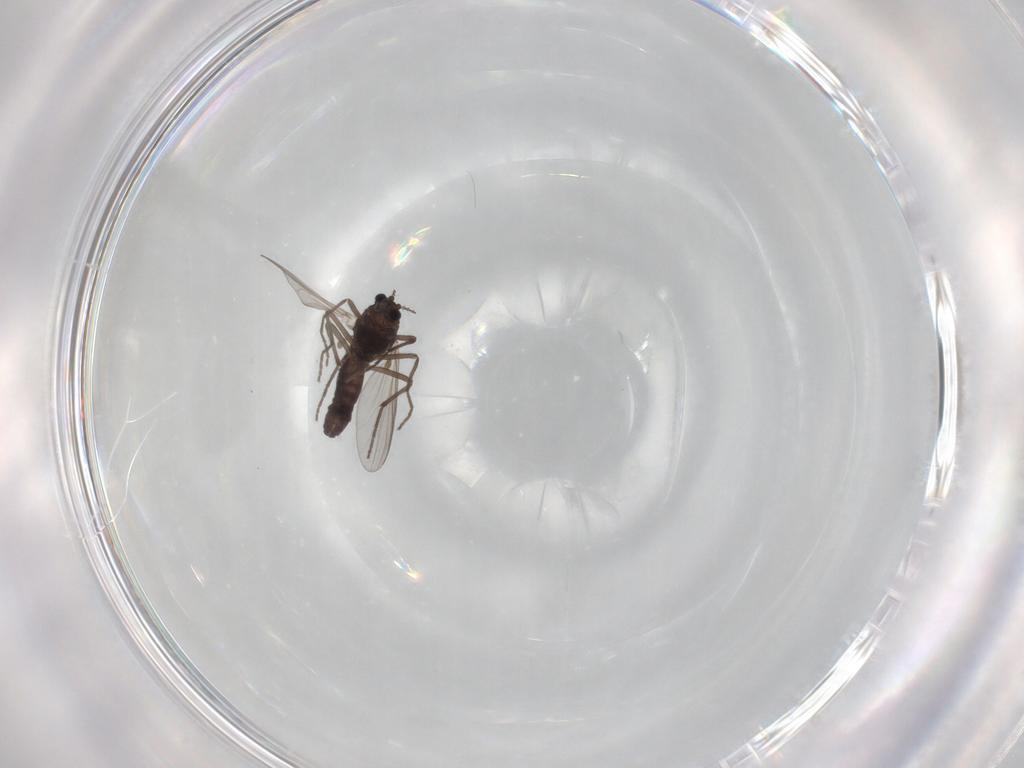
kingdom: Animalia
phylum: Arthropoda
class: Insecta
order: Diptera
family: Chironomidae
